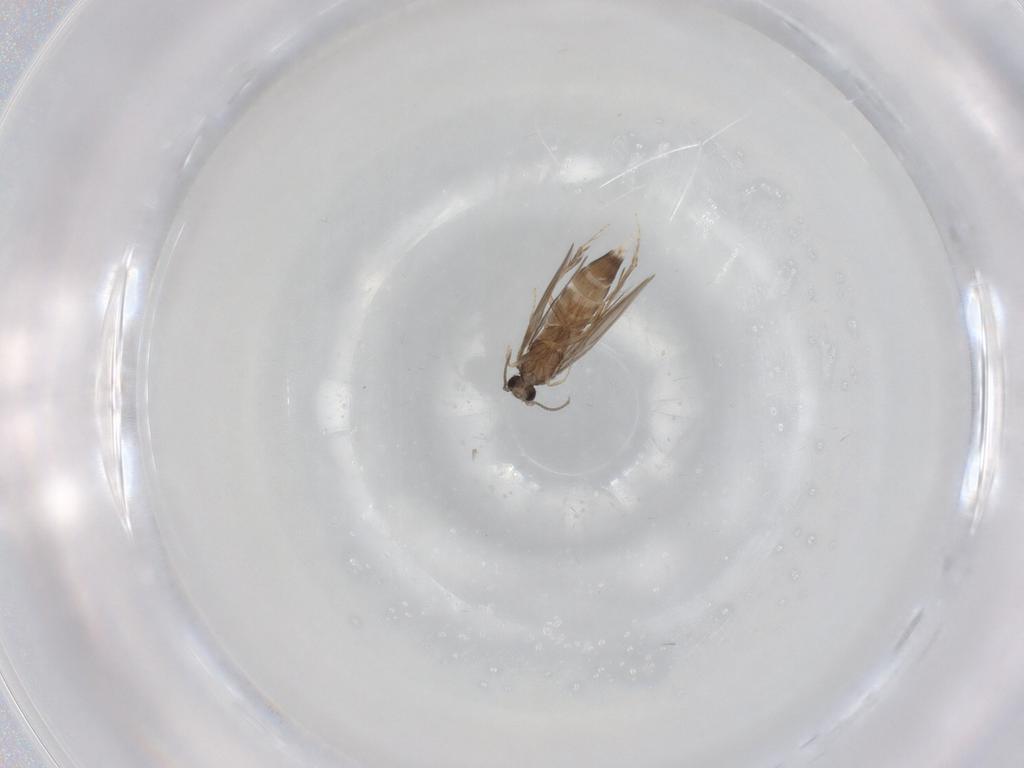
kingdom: Animalia
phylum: Arthropoda
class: Insecta
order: Trichoptera
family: Hydroptilidae
